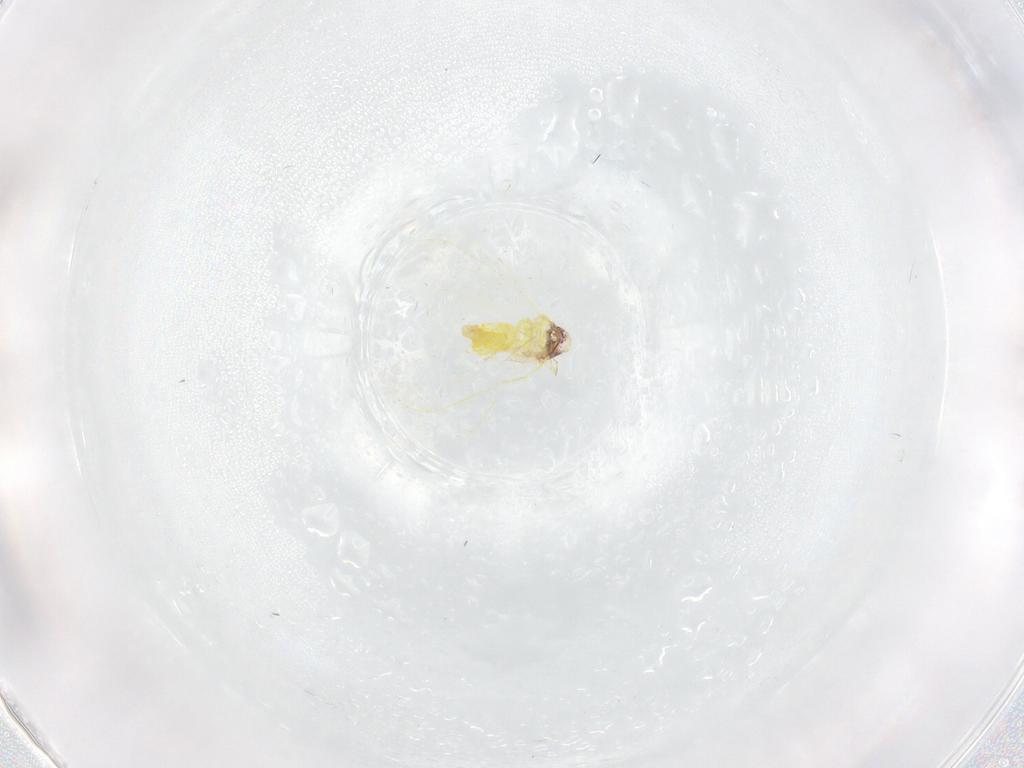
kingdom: Animalia
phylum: Arthropoda
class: Insecta
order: Hemiptera
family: Aleyrodidae
